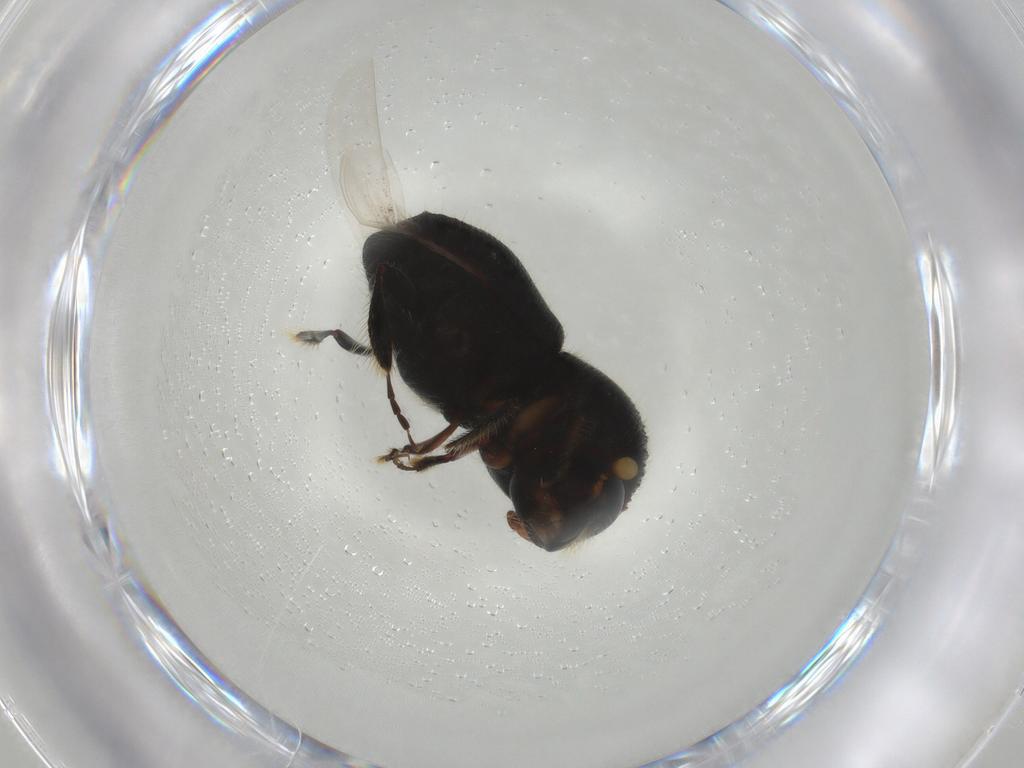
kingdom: Animalia
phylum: Arthropoda
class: Insecta
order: Coleoptera
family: Curculionidae
